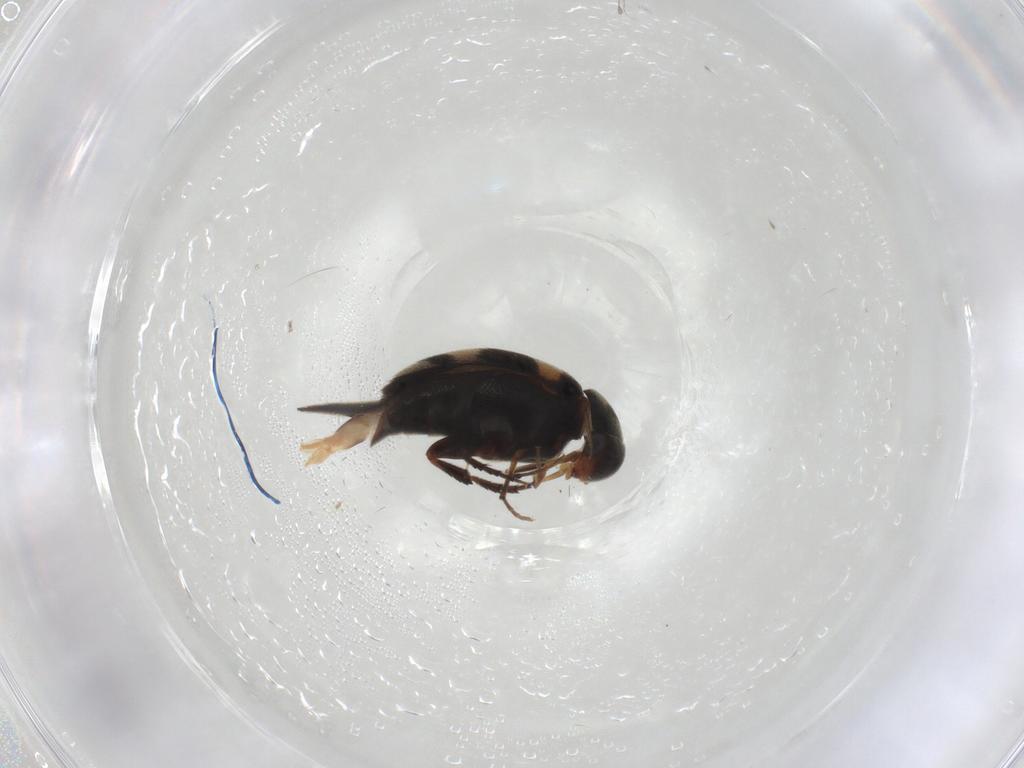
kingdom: Animalia
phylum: Arthropoda
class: Insecta
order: Coleoptera
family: Mordellidae
